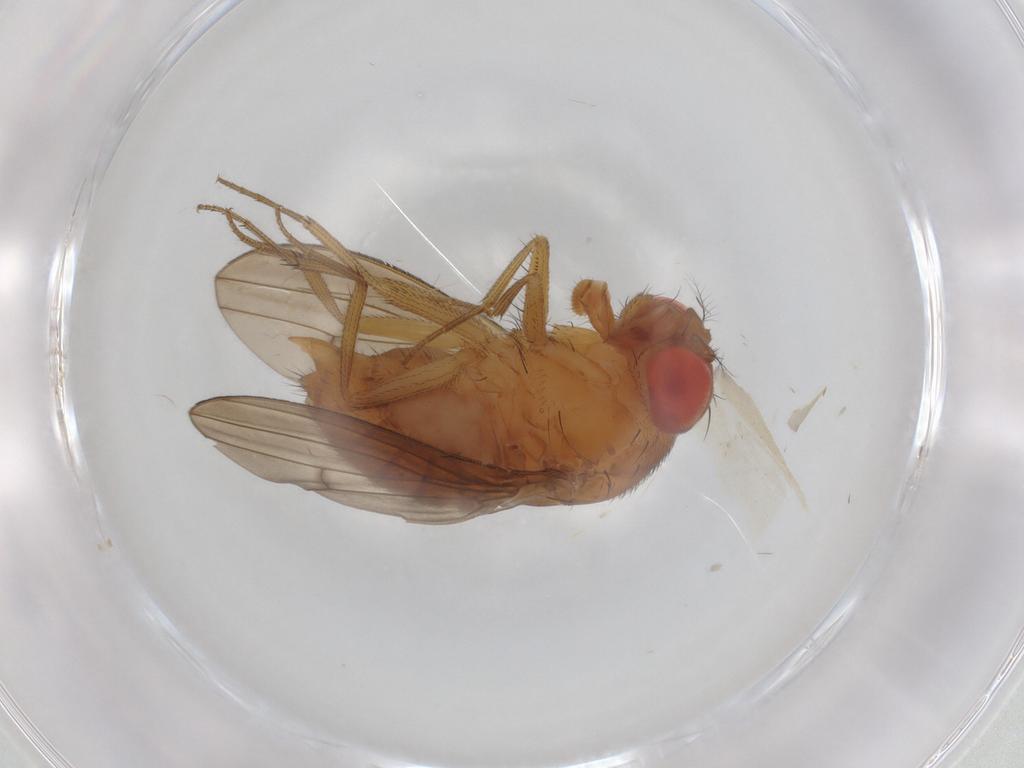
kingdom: Animalia
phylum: Arthropoda
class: Insecta
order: Diptera
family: Drosophilidae
